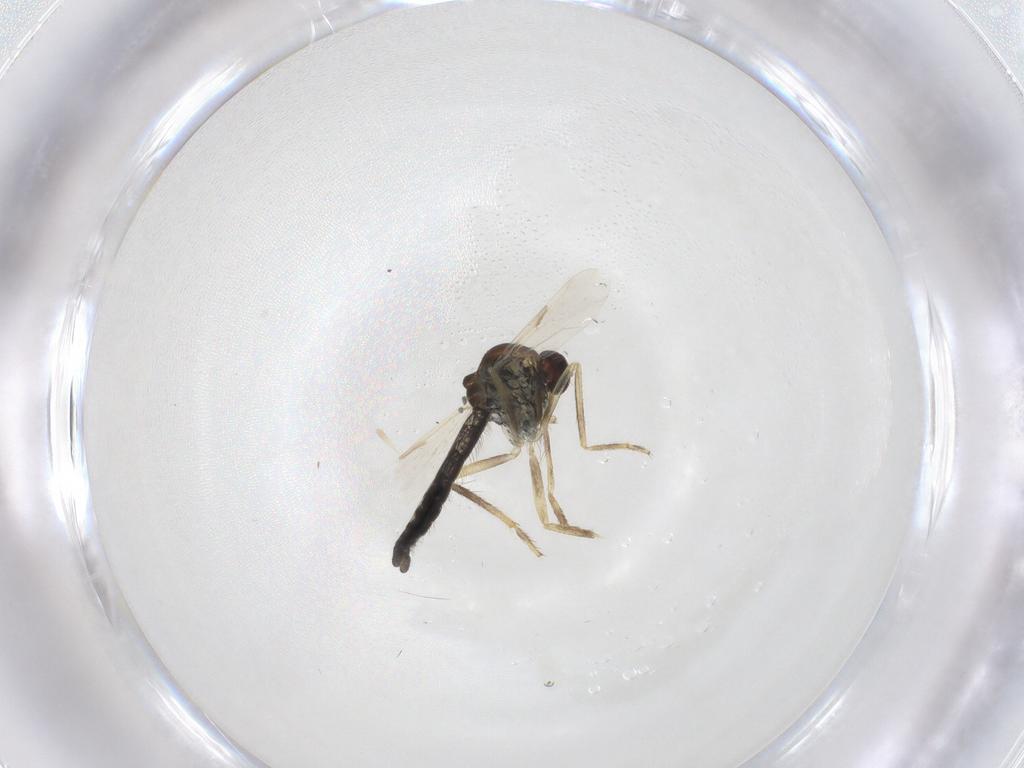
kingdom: Animalia
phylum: Arthropoda
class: Insecta
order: Diptera
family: Ceratopogonidae
